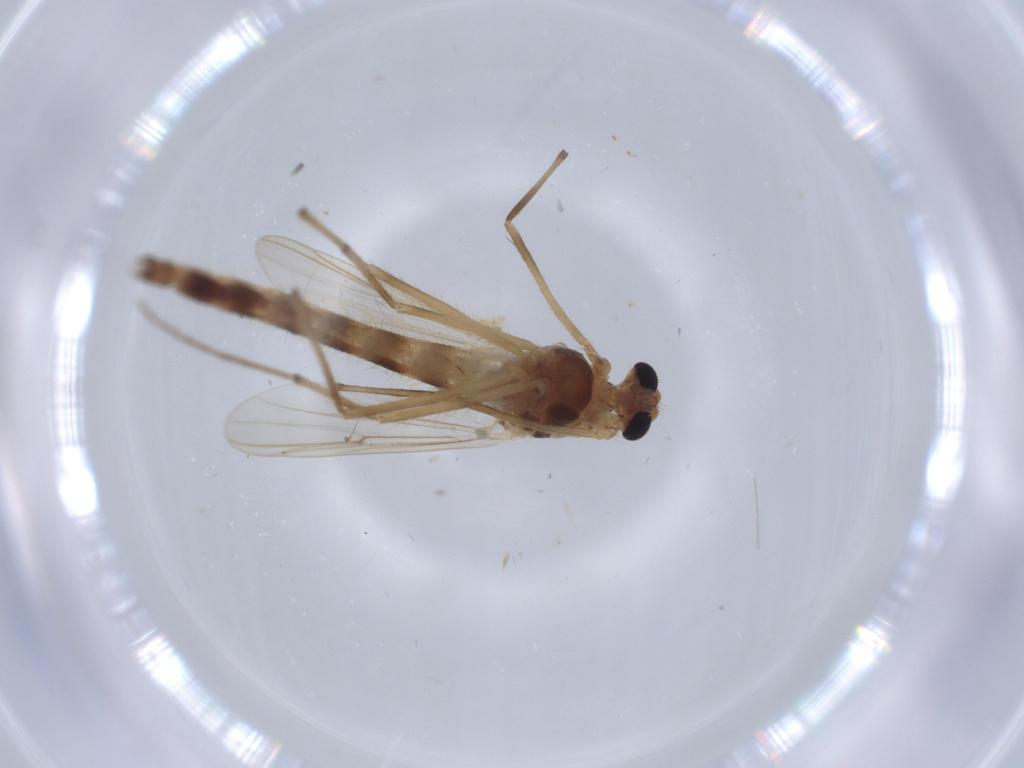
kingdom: Animalia
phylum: Arthropoda
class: Insecta
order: Diptera
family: Chironomidae
